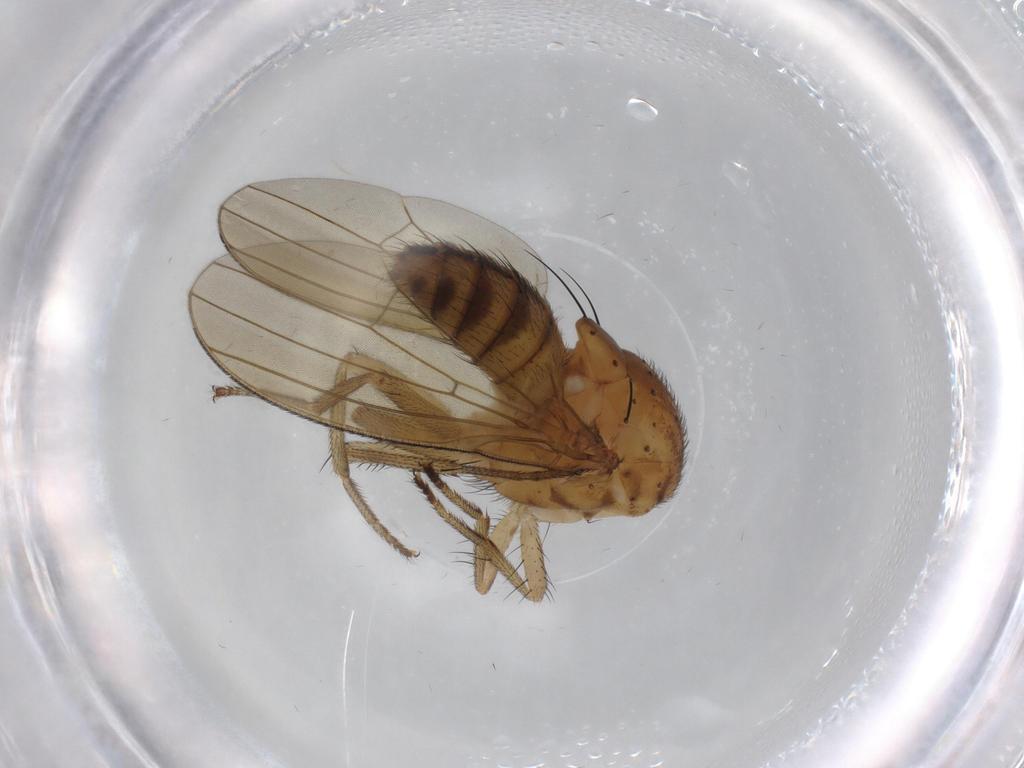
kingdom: Animalia
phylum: Arthropoda
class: Insecta
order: Diptera
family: Chloropidae
